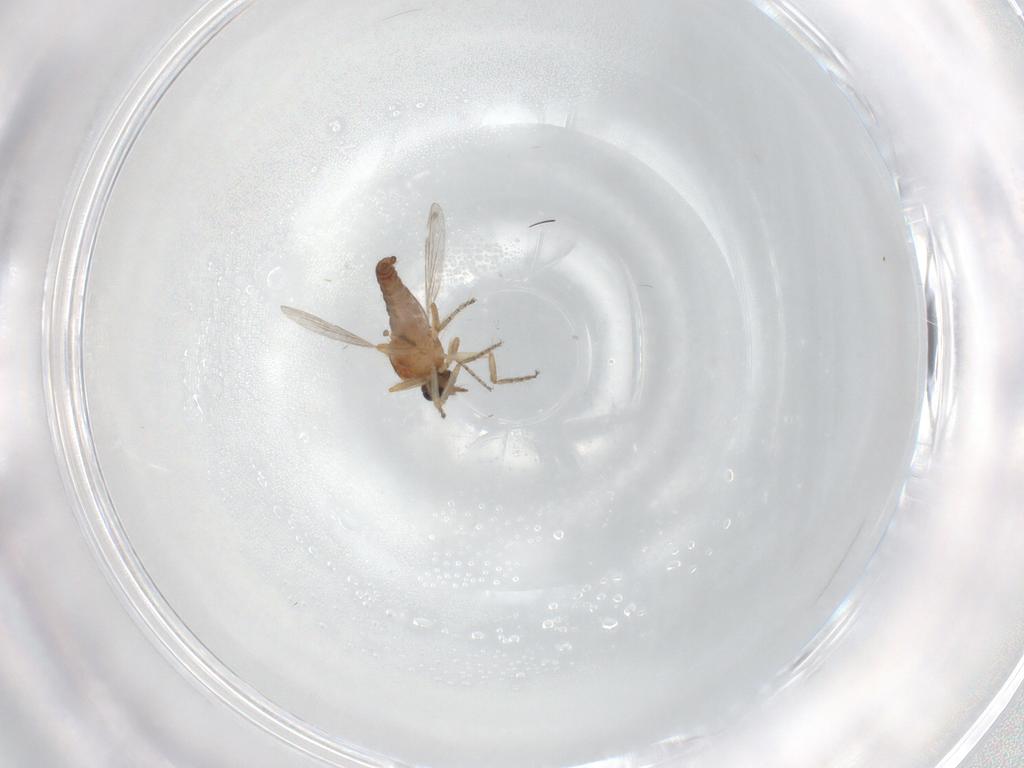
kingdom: Animalia
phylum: Arthropoda
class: Insecta
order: Diptera
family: Ceratopogonidae
